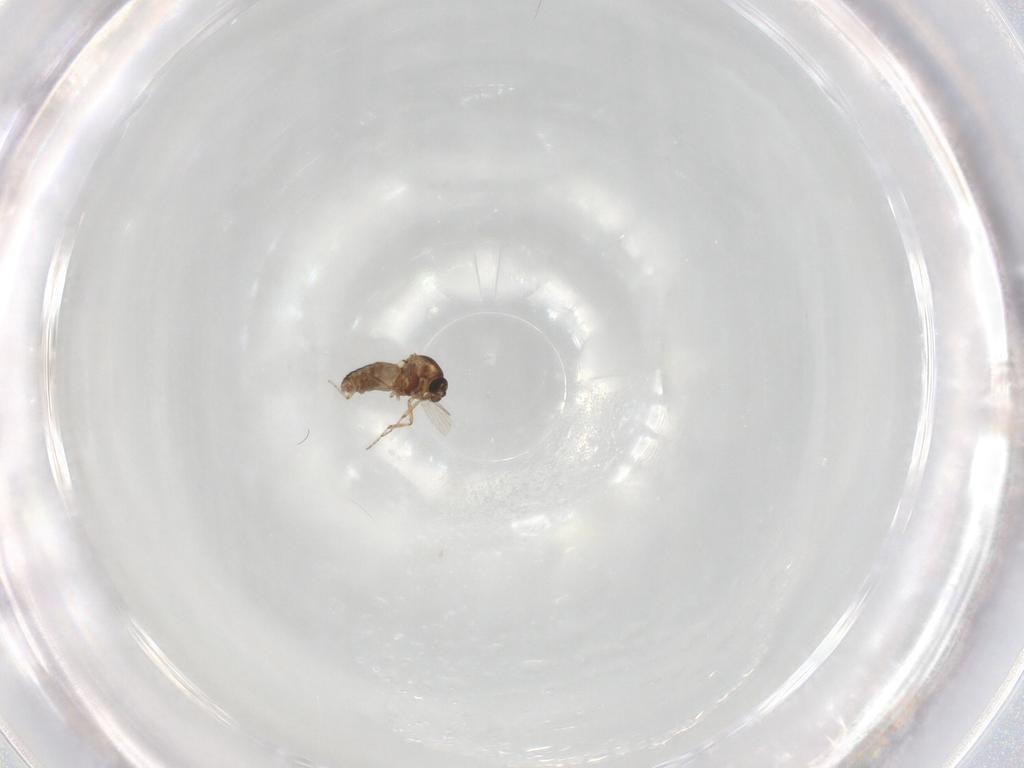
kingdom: Animalia
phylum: Arthropoda
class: Insecta
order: Diptera
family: Ceratopogonidae
